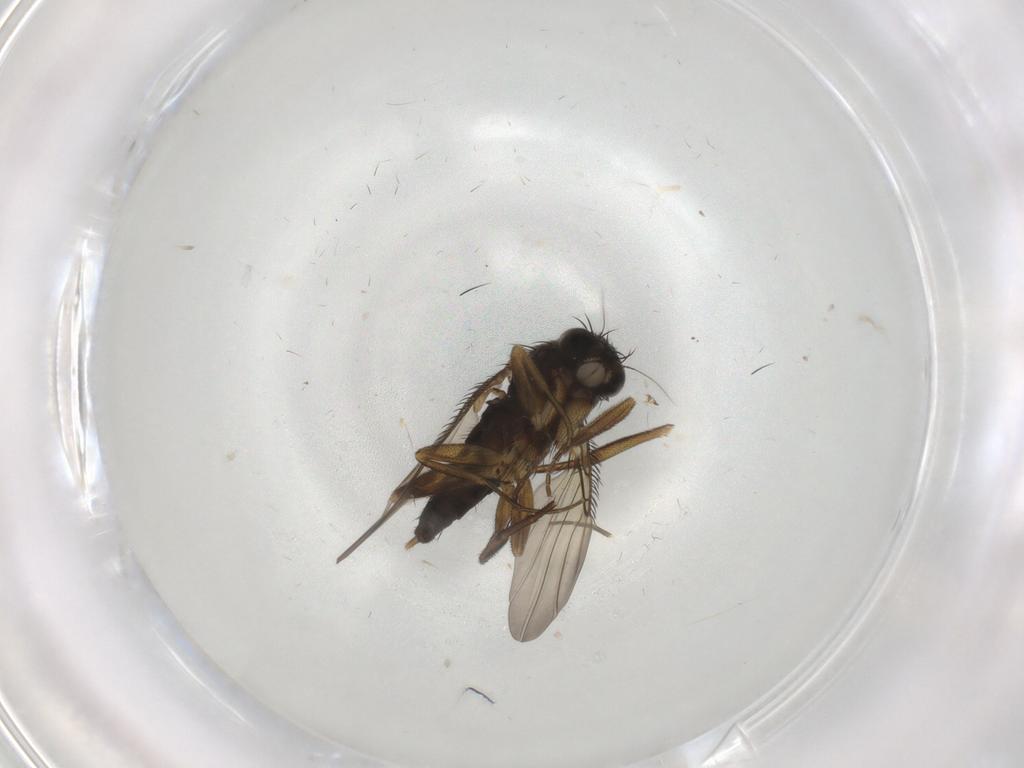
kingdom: Animalia
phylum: Arthropoda
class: Insecta
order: Diptera
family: Phoridae
